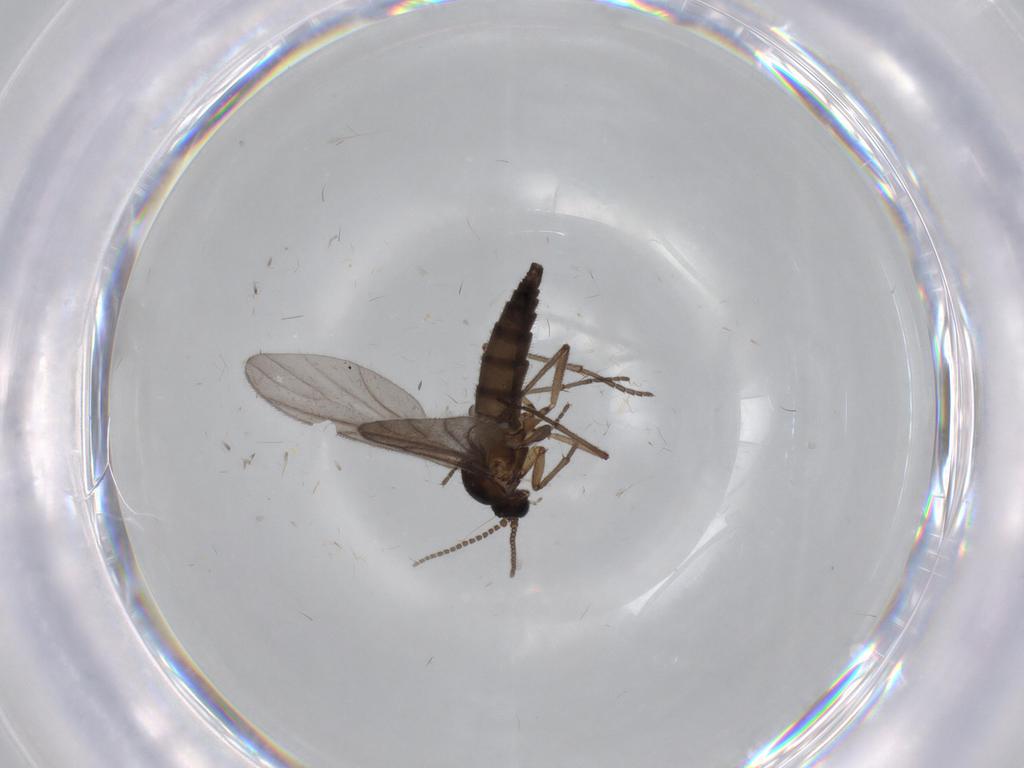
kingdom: Animalia
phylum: Arthropoda
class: Insecta
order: Diptera
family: Sciaridae
